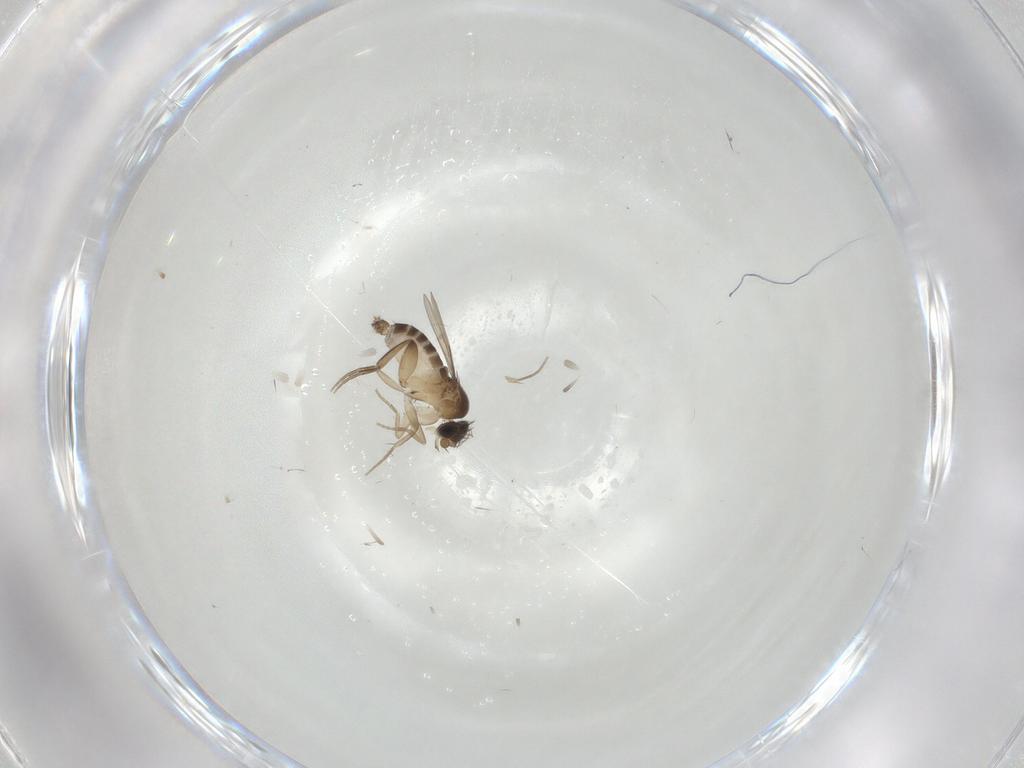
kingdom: Animalia
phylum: Arthropoda
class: Insecta
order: Diptera
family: Phoridae
